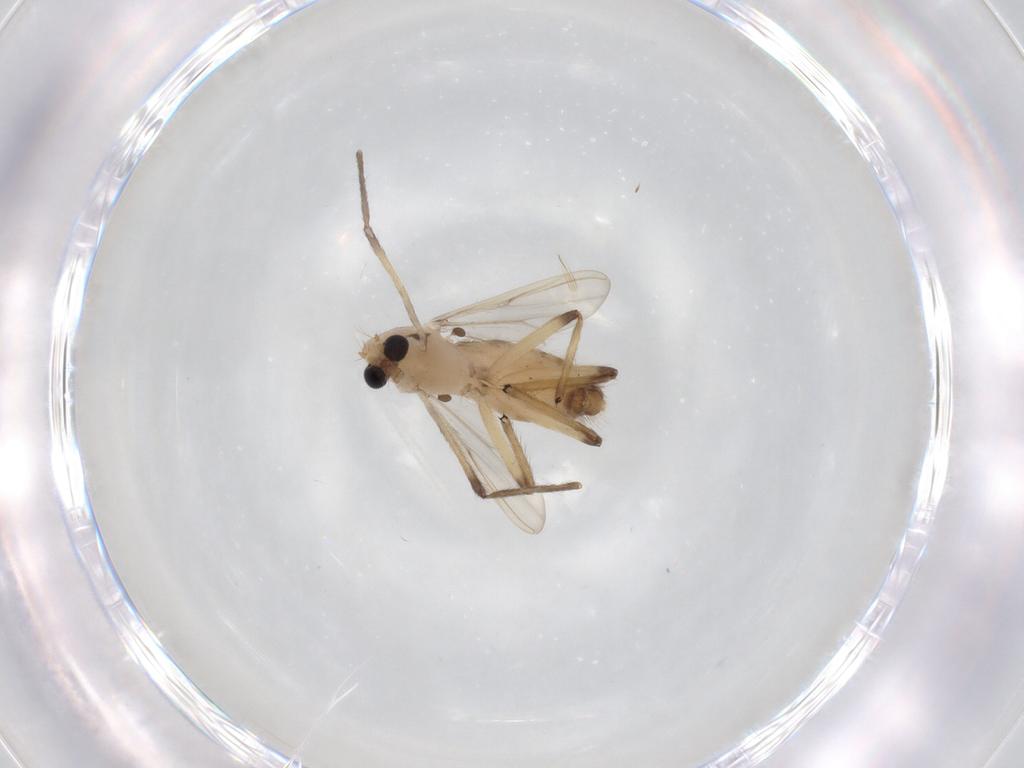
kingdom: Animalia
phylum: Arthropoda
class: Insecta
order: Diptera
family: Chironomidae
